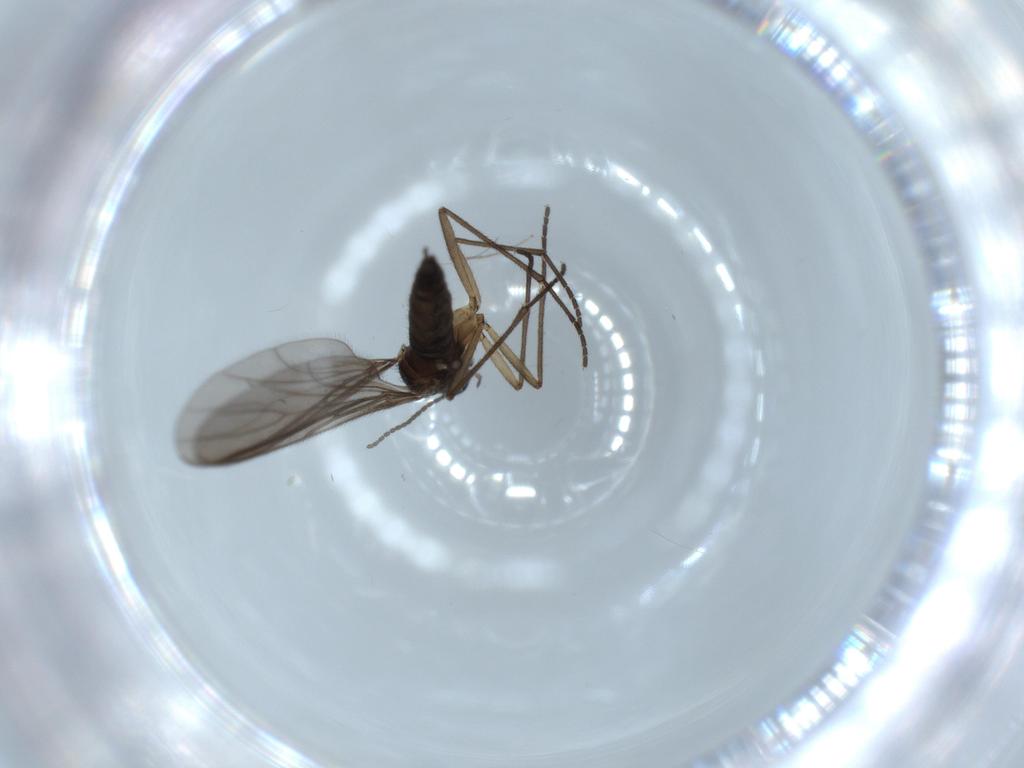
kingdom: Animalia
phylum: Arthropoda
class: Insecta
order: Diptera
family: Sciaridae
